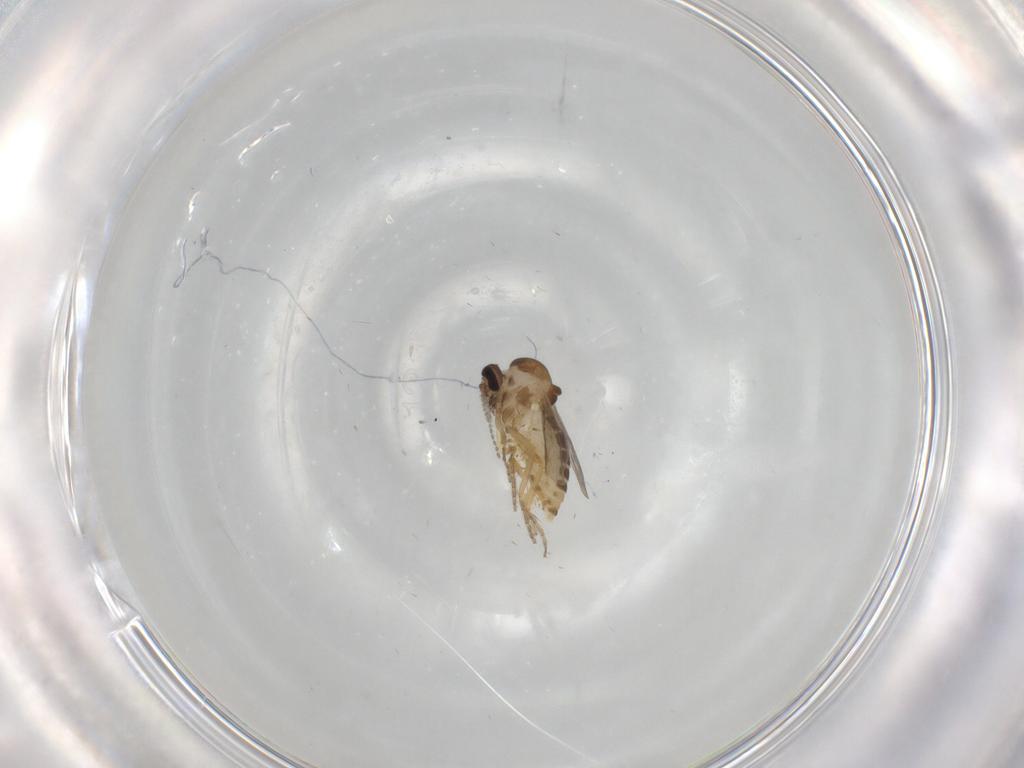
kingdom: Animalia
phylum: Arthropoda
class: Insecta
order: Diptera
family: Ceratopogonidae
